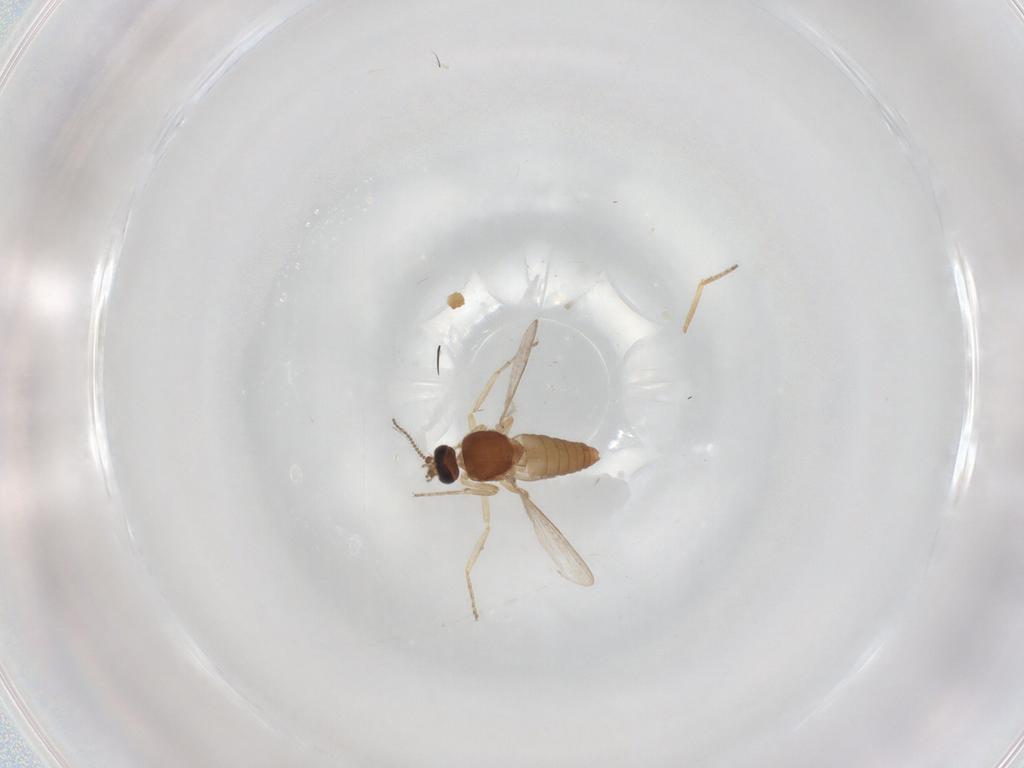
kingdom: Animalia
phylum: Arthropoda
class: Insecta
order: Diptera
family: Ceratopogonidae
